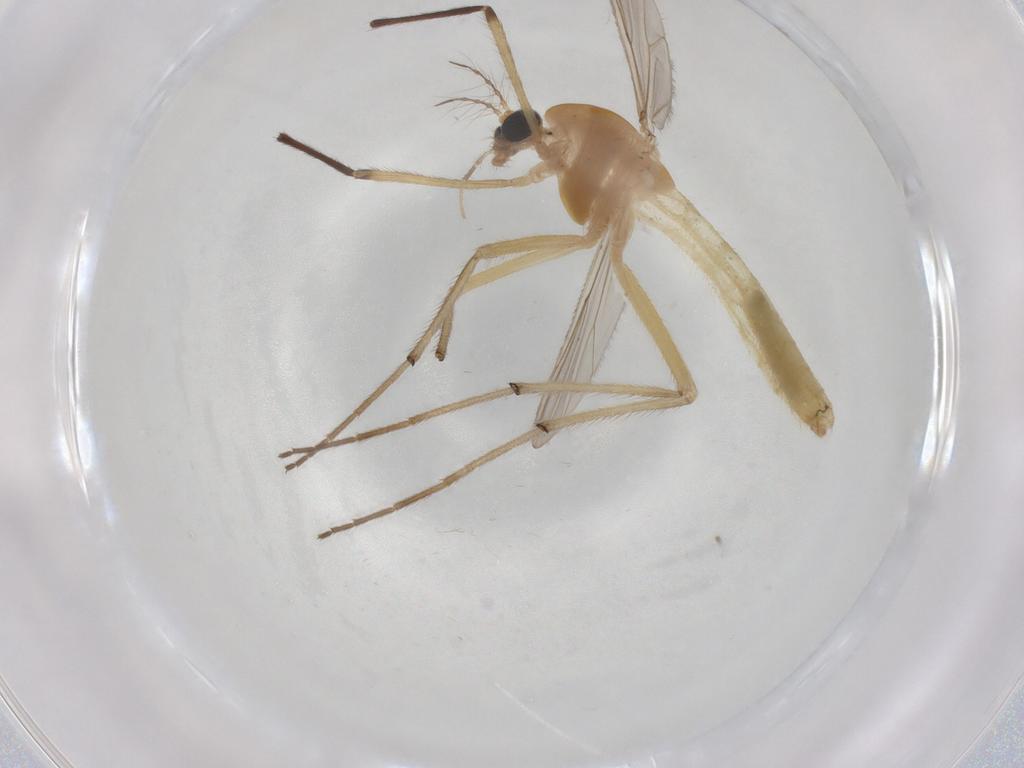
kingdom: Animalia
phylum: Arthropoda
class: Insecta
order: Diptera
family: Chironomidae
